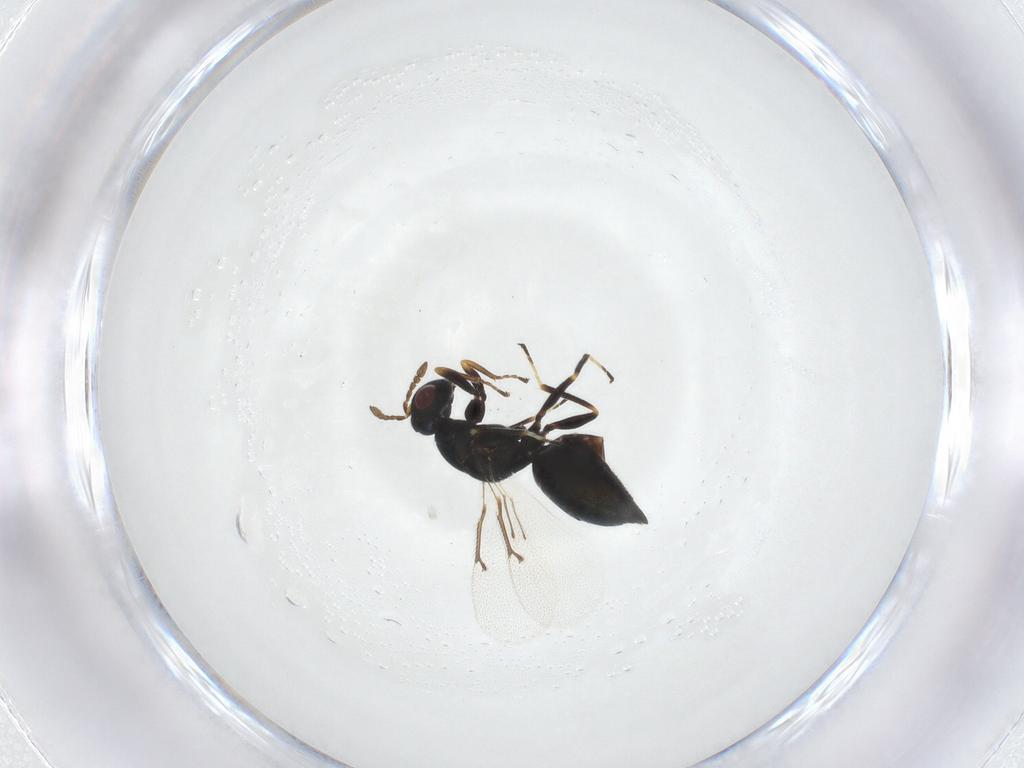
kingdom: Animalia
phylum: Arthropoda
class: Insecta
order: Hymenoptera
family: Eulophidae
